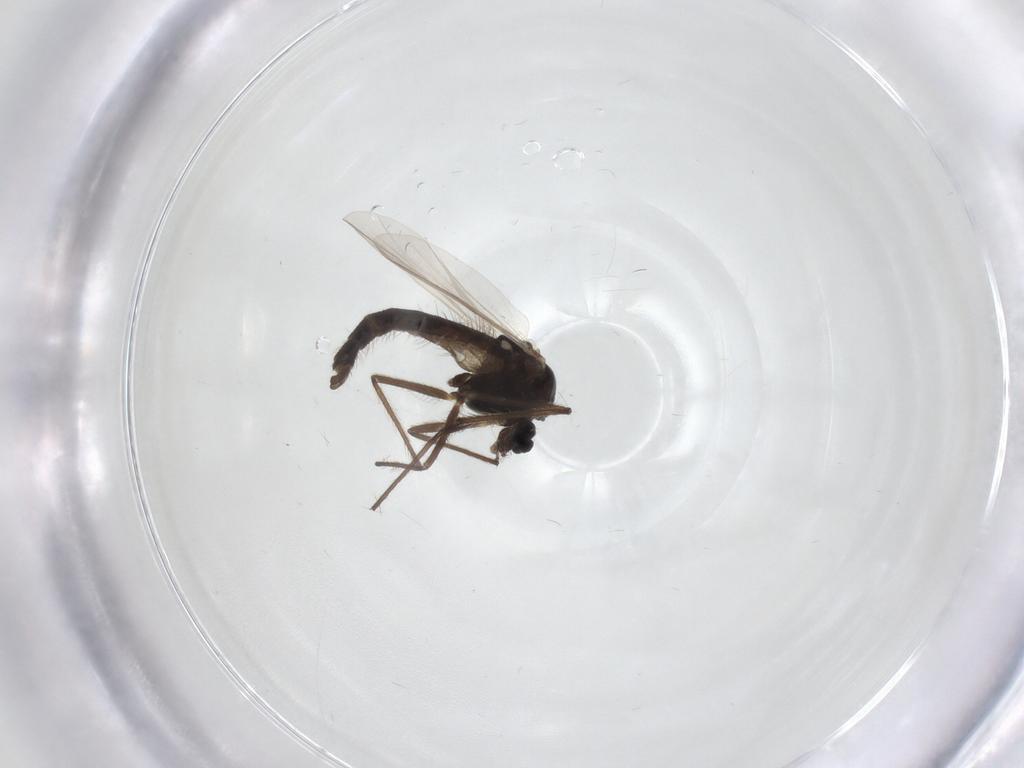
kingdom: Animalia
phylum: Arthropoda
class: Insecta
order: Diptera
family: Chironomidae
